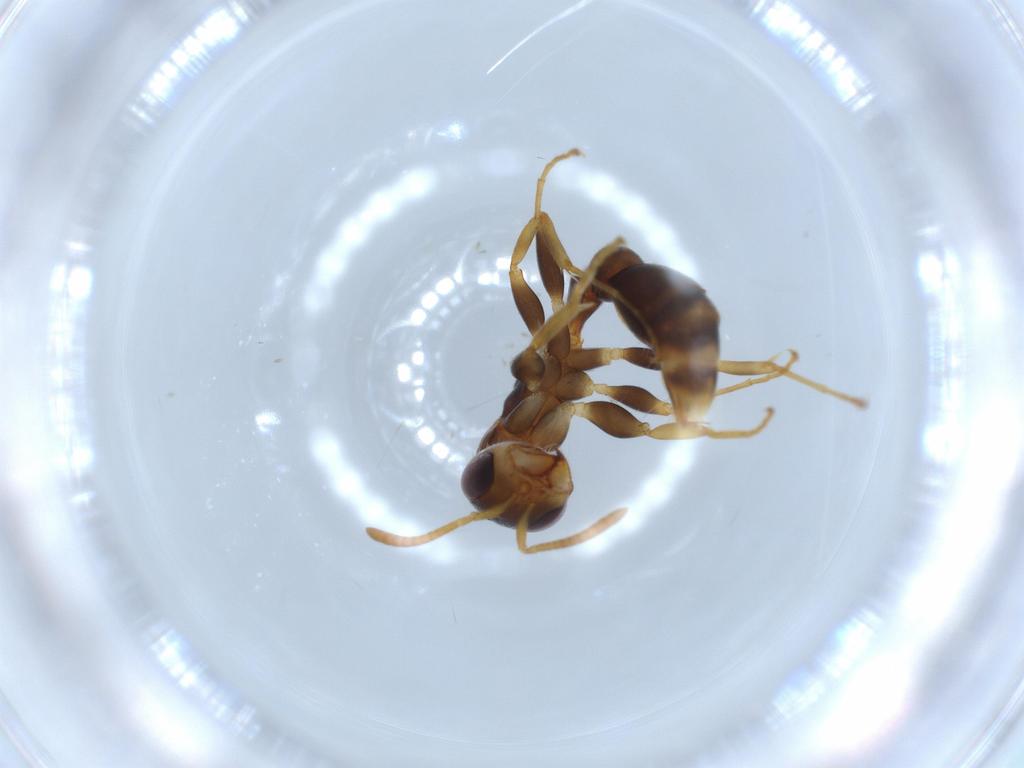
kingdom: Animalia
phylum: Arthropoda
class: Insecta
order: Hymenoptera
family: Formicidae
